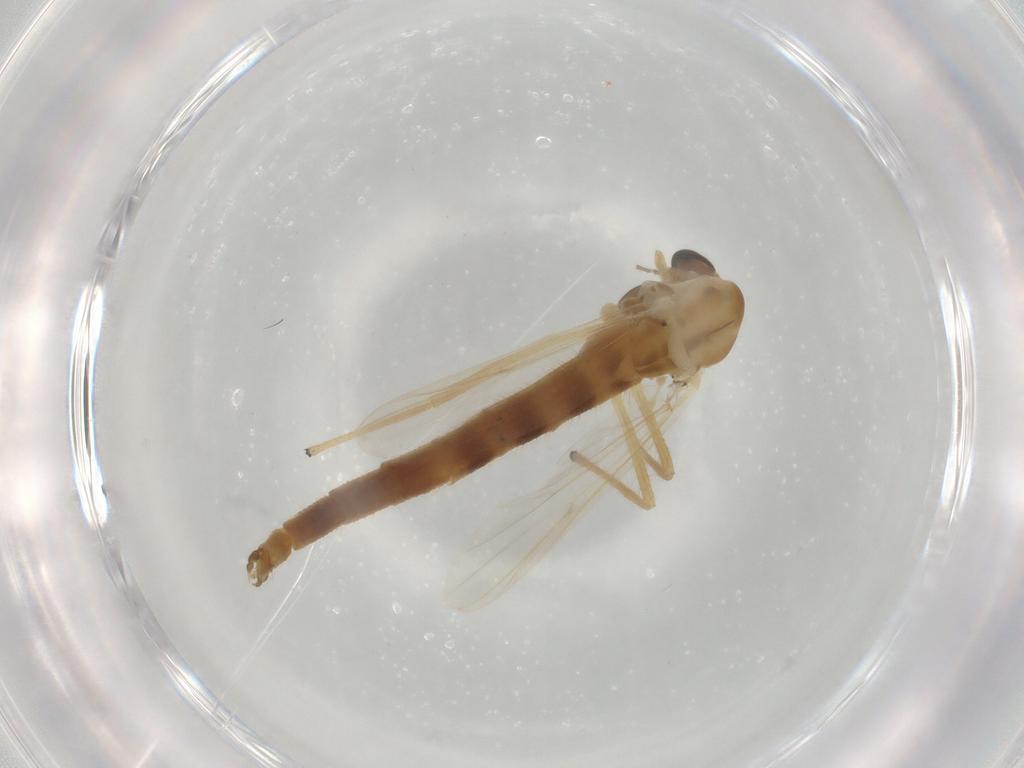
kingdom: Animalia
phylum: Arthropoda
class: Insecta
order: Diptera
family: Chironomidae
